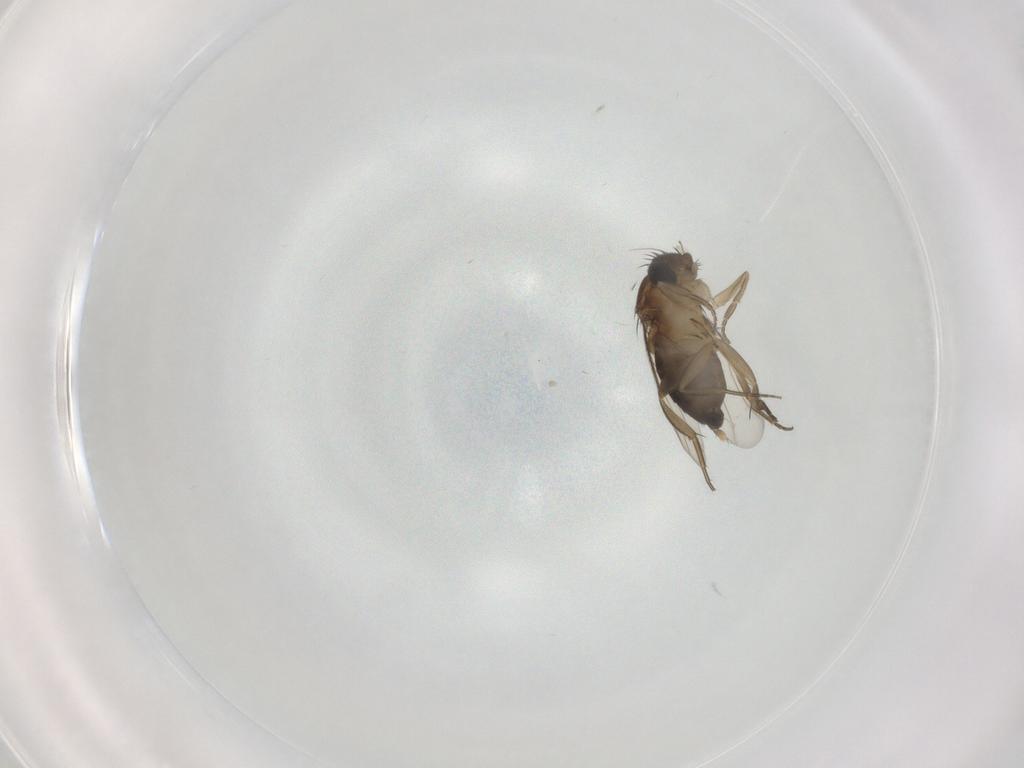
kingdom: Animalia
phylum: Arthropoda
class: Insecta
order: Diptera
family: Phoridae
